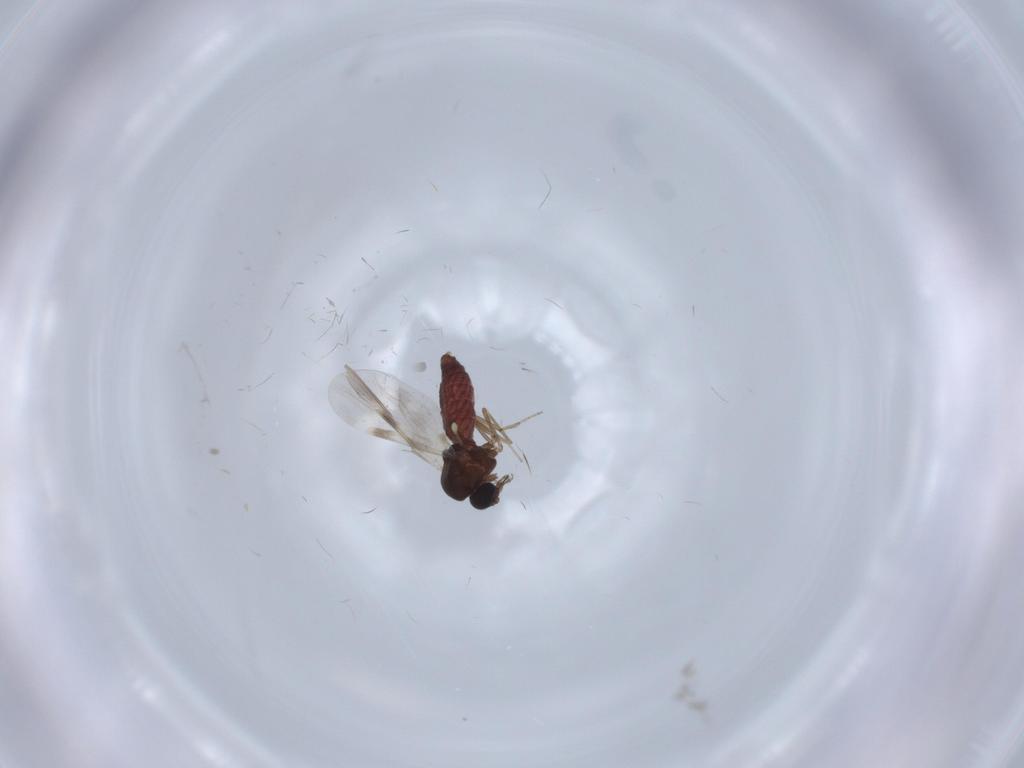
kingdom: Animalia
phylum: Arthropoda
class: Insecta
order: Diptera
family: Ceratopogonidae
